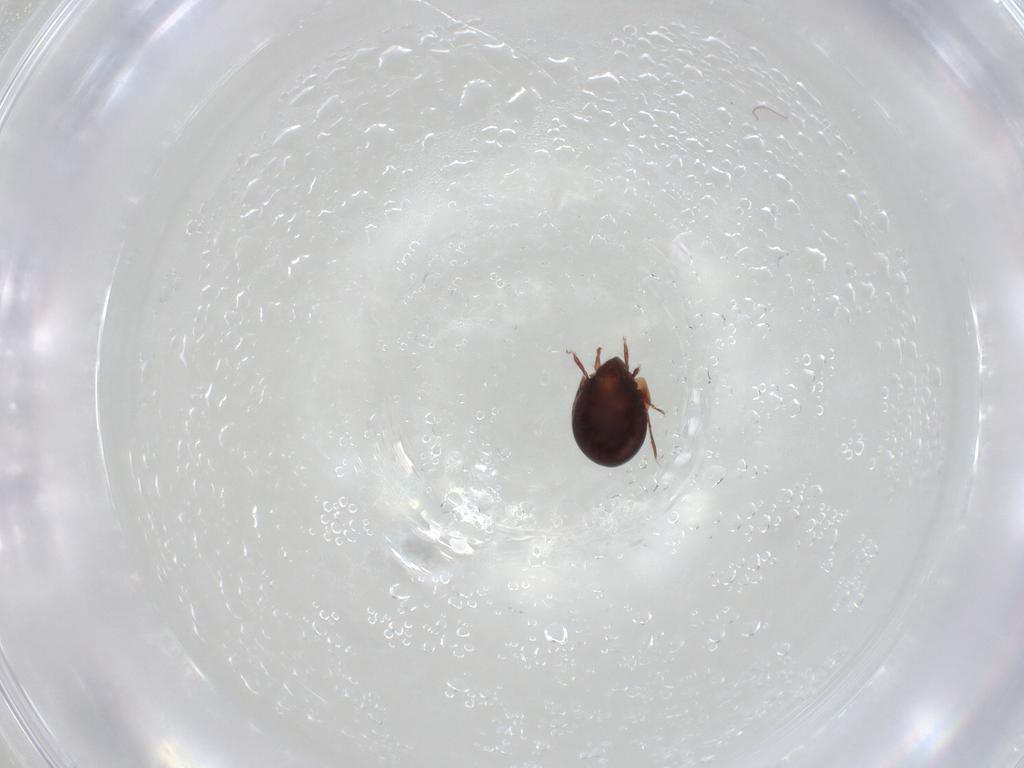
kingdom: Animalia
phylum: Arthropoda
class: Arachnida
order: Sarcoptiformes
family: Humerobatidae
